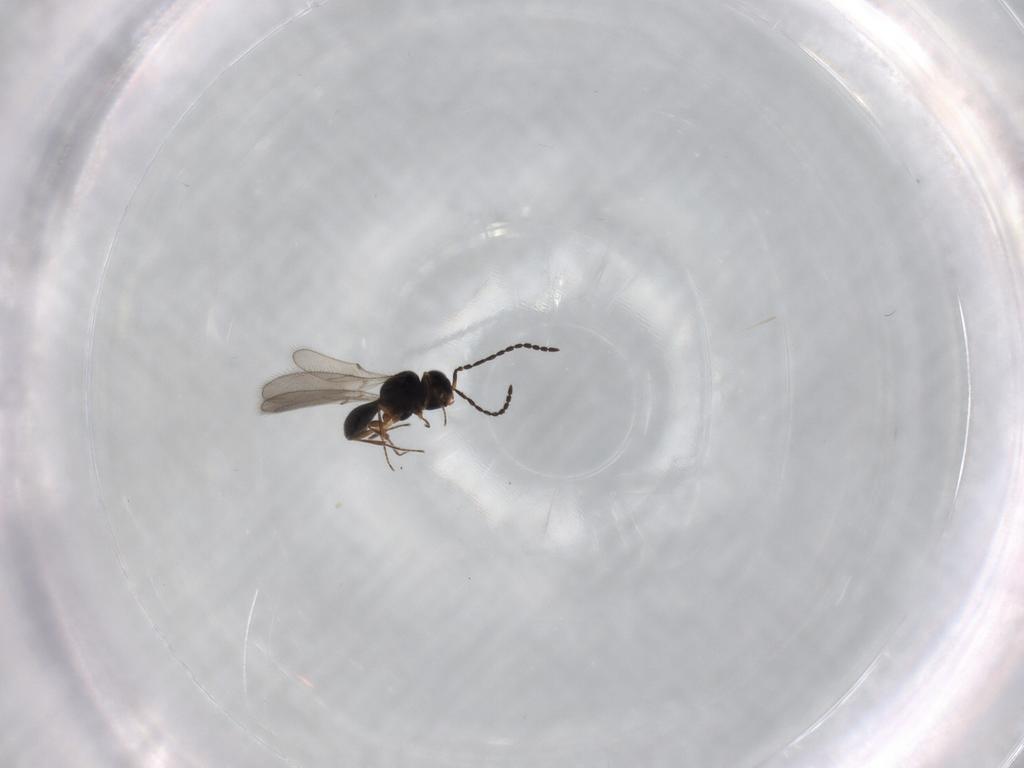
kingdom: Animalia
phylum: Arthropoda
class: Insecta
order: Hymenoptera
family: Scelionidae
